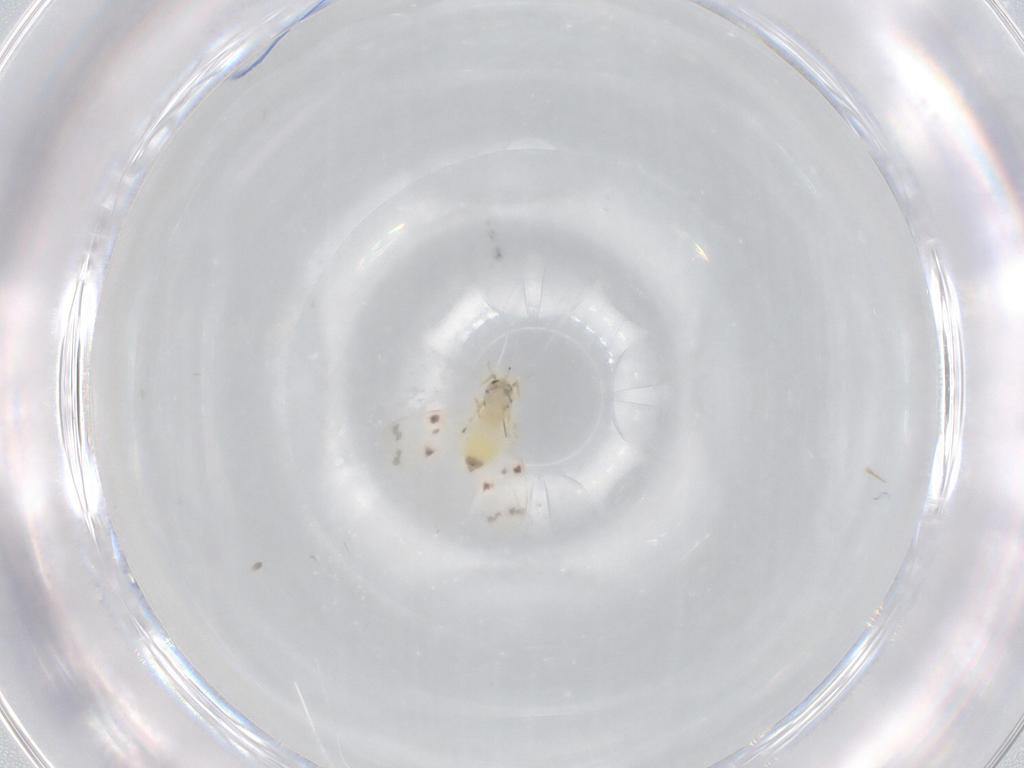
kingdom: Animalia
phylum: Arthropoda
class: Insecta
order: Hemiptera
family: Aleyrodidae
